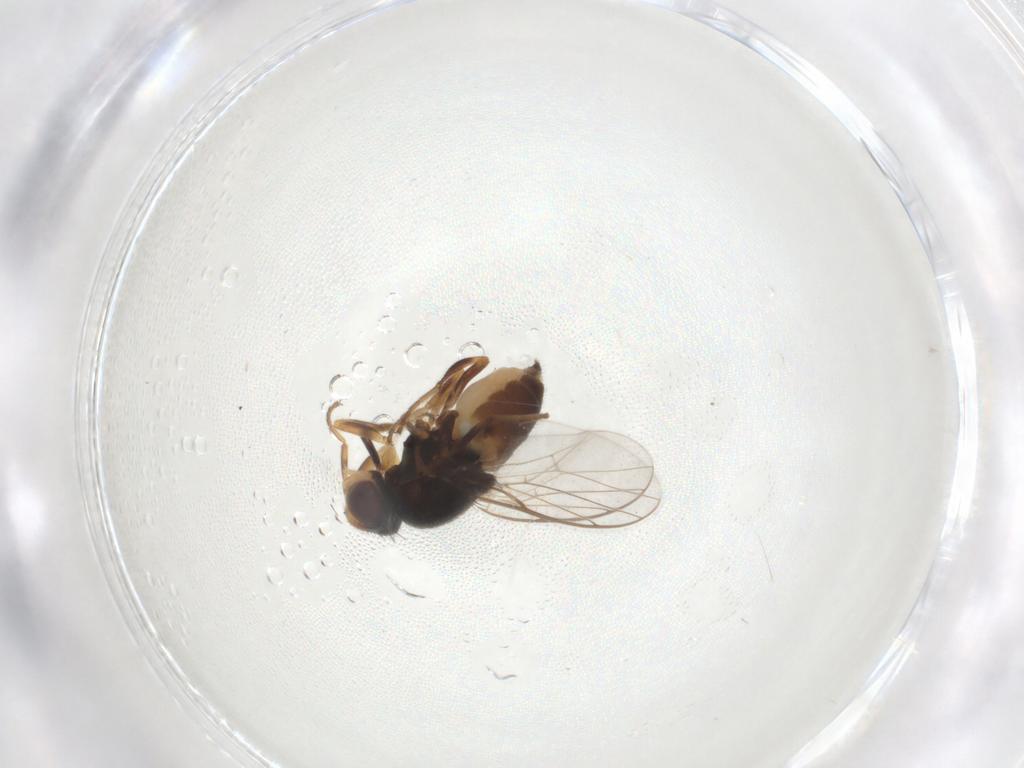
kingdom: Animalia
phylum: Arthropoda
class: Insecta
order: Diptera
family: Chloropidae
